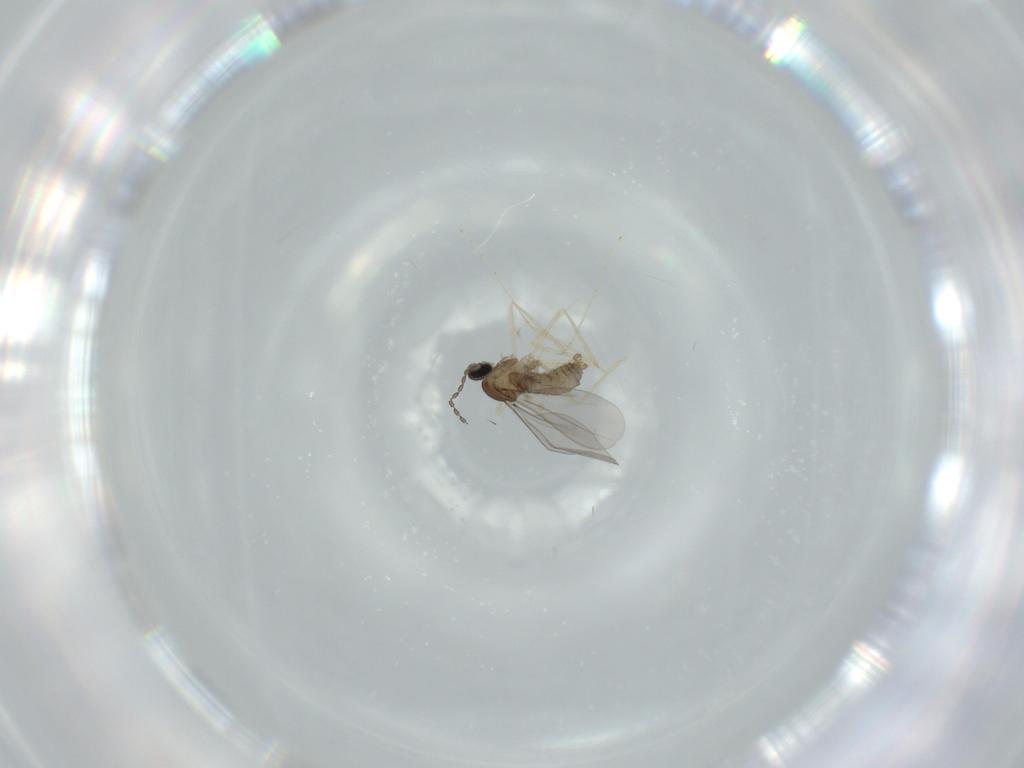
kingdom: Animalia
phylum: Arthropoda
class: Insecta
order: Diptera
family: Chironomidae
